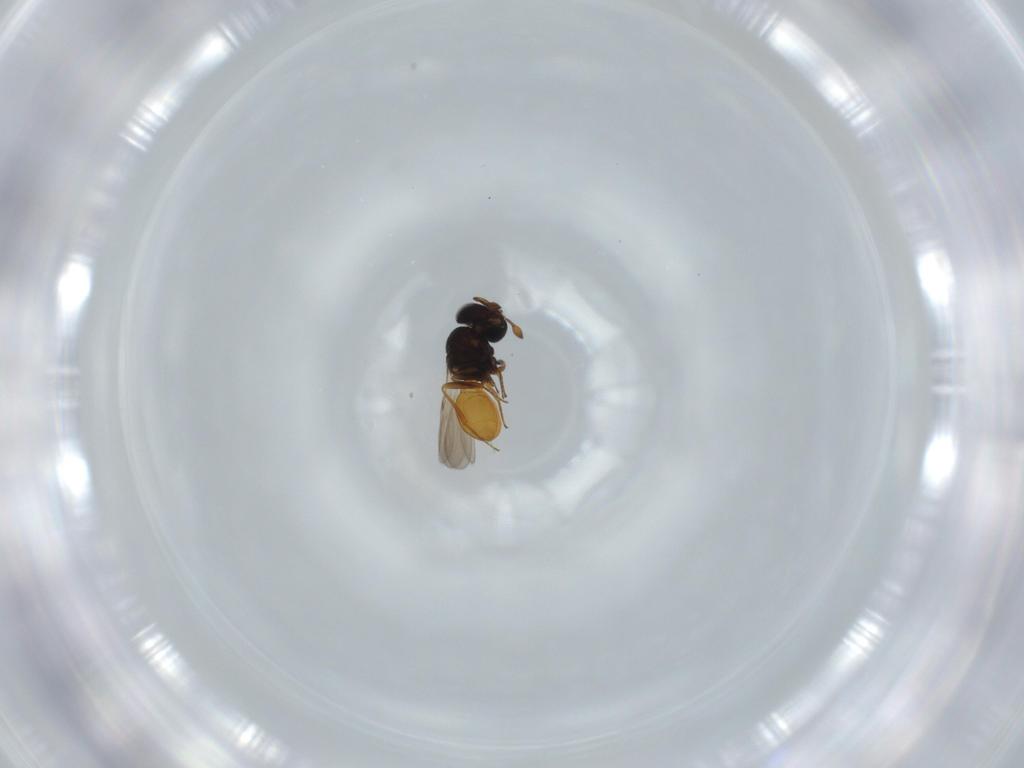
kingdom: Animalia
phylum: Arthropoda
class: Insecta
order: Hymenoptera
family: Scelionidae
